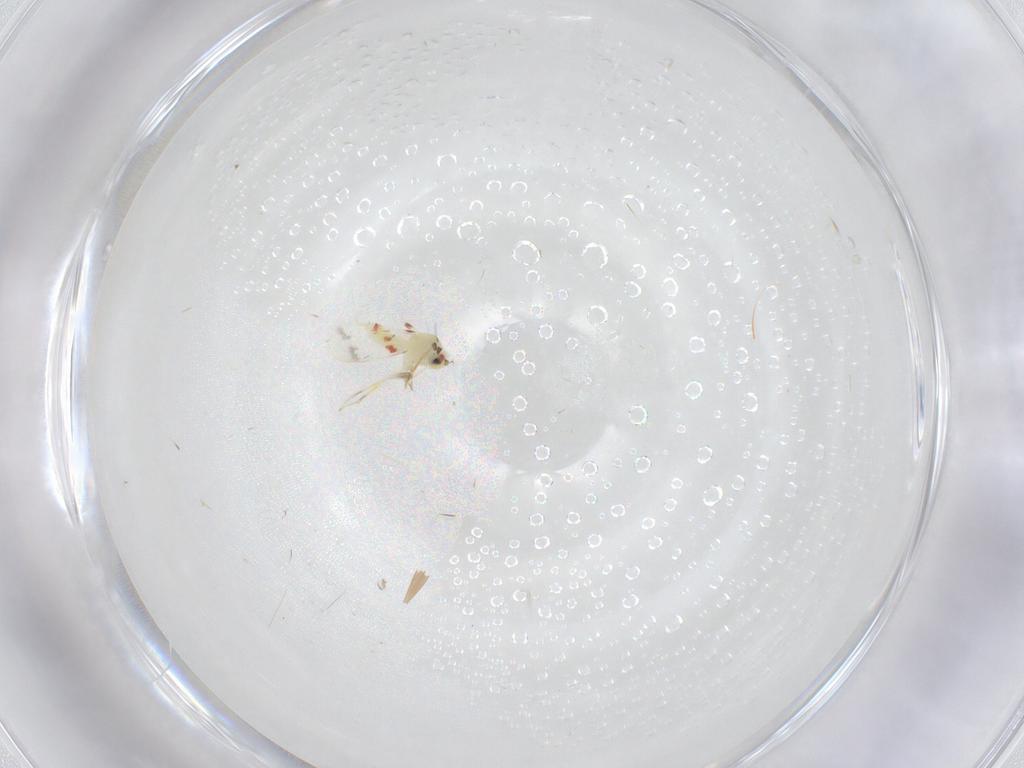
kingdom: Animalia
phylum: Arthropoda
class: Insecta
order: Hemiptera
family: Aleyrodidae
